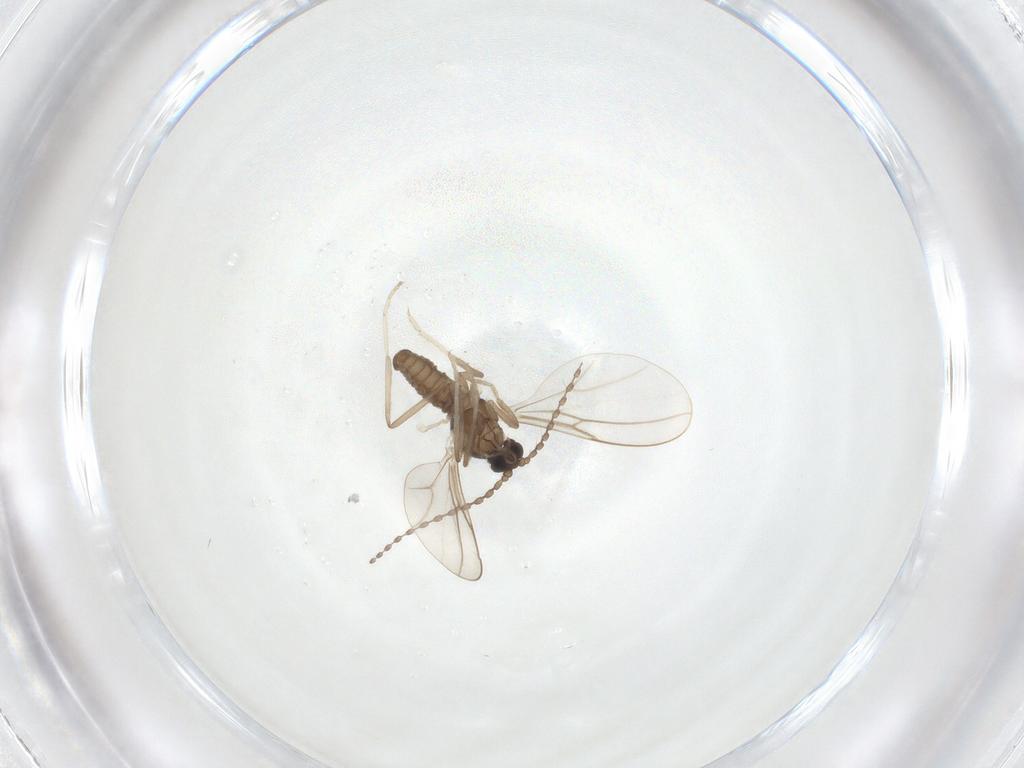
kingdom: Animalia
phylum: Arthropoda
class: Insecta
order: Diptera
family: Cecidomyiidae
